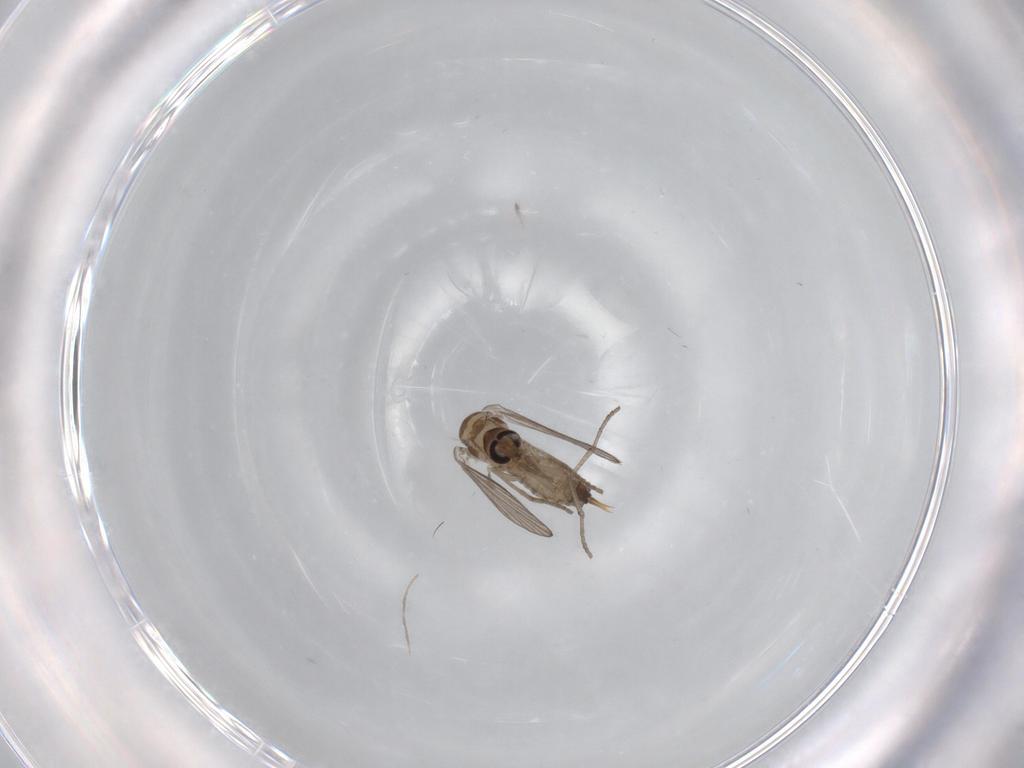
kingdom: Animalia
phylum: Arthropoda
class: Insecta
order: Diptera
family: Psychodidae
